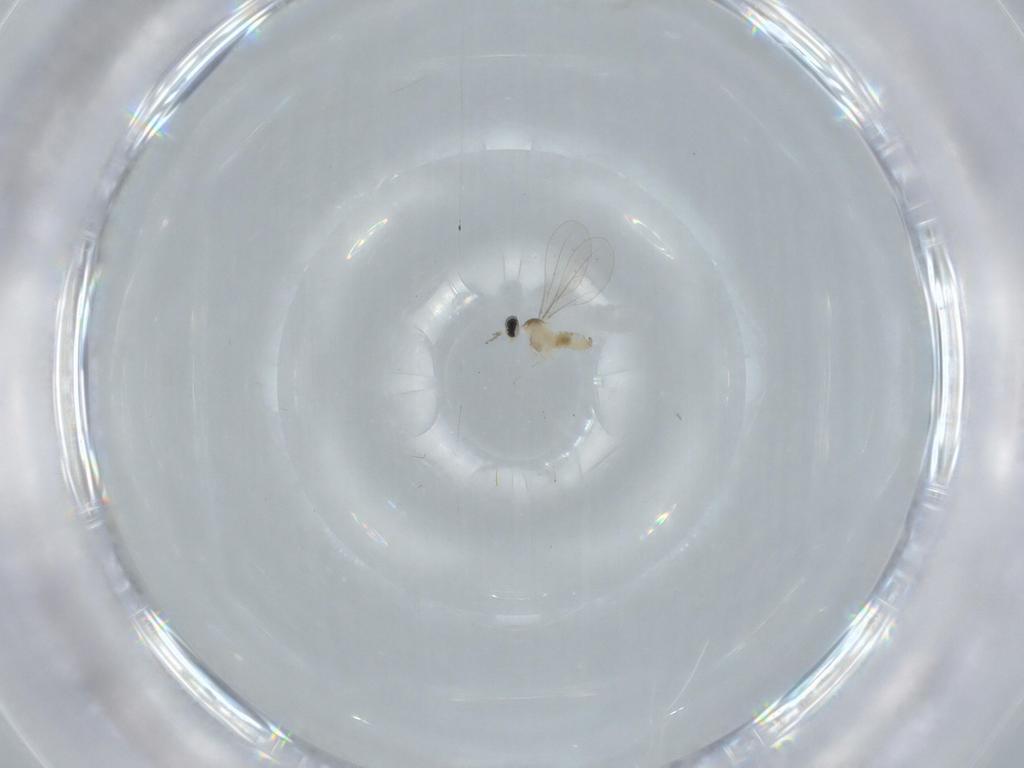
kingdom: Animalia
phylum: Arthropoda
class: Insecta
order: Diptera
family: Cecidomyiidae
